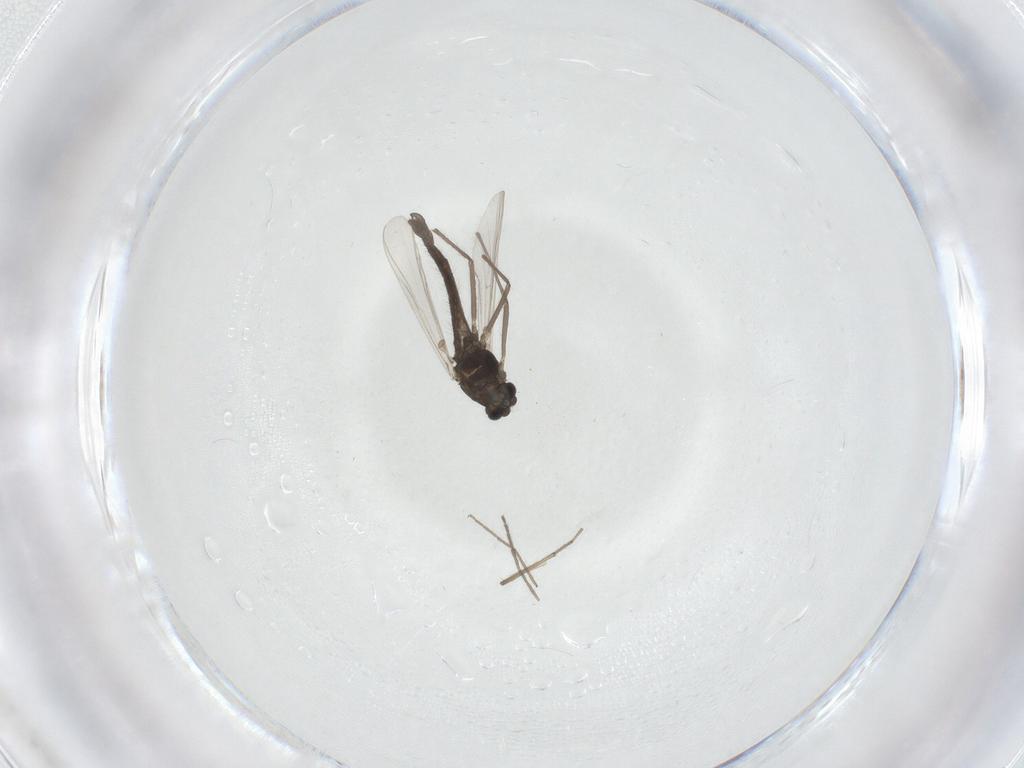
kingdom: Animalia
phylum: Arthropoda
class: Insecta
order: Diptera
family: Chironomidae
